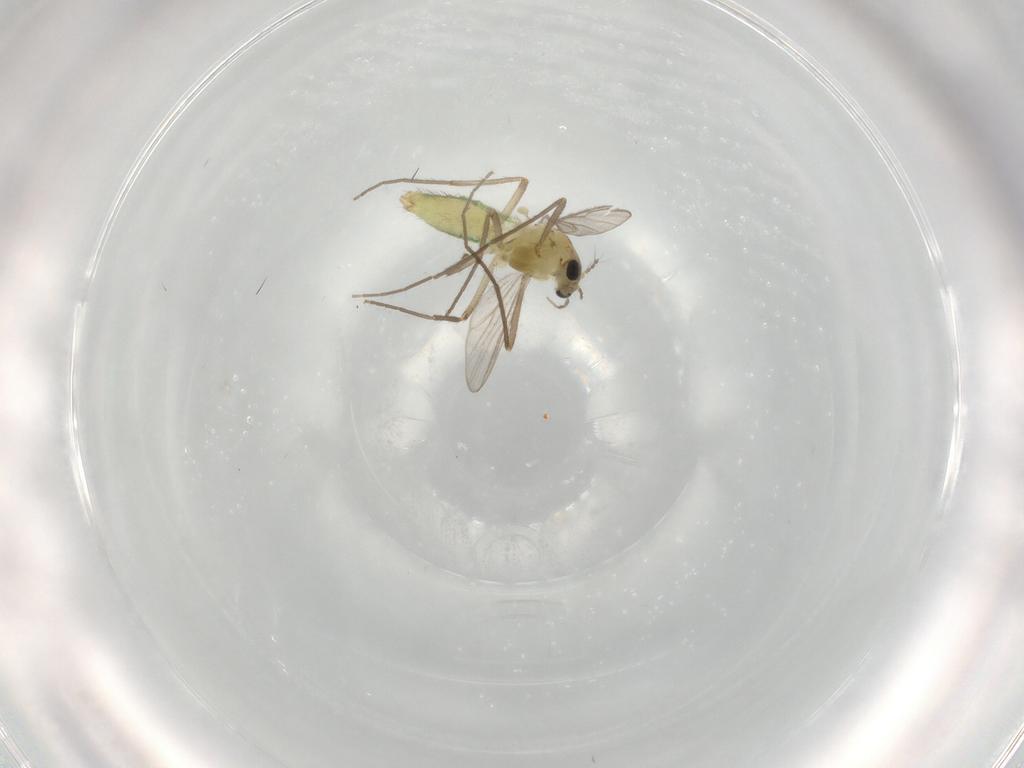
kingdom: Animalia
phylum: Arthropoda
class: Insecta
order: Diptera
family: Chironomidae
